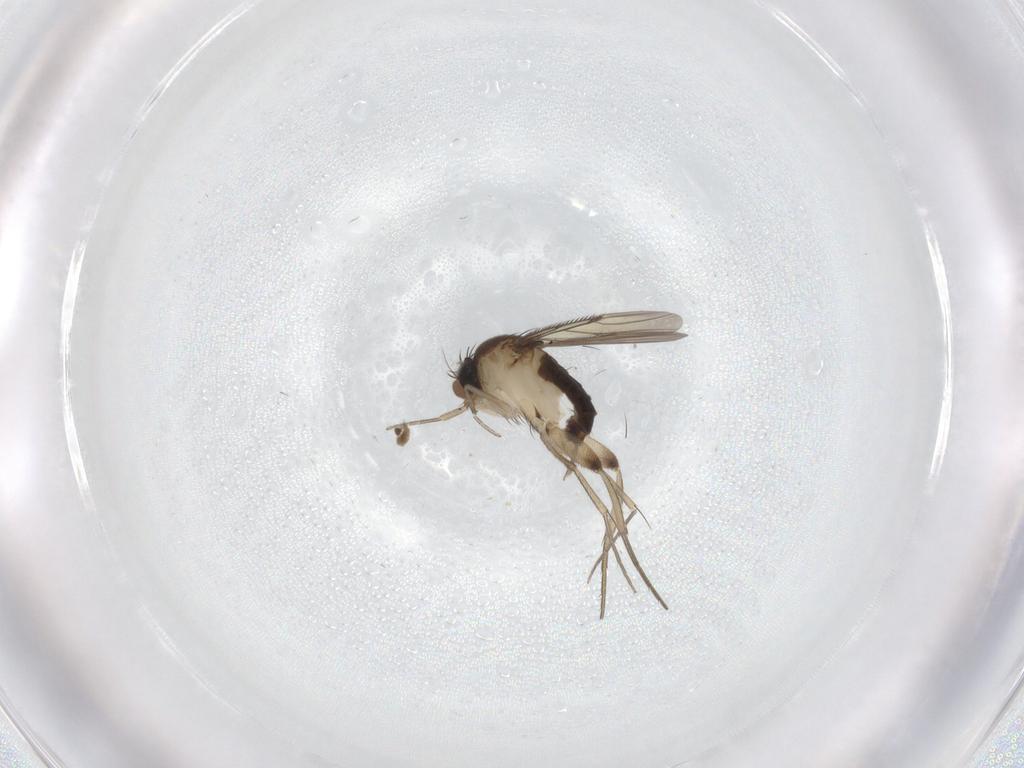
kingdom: Animalia
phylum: Arthropoda
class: Insecta
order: Diptera
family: Phoridae
